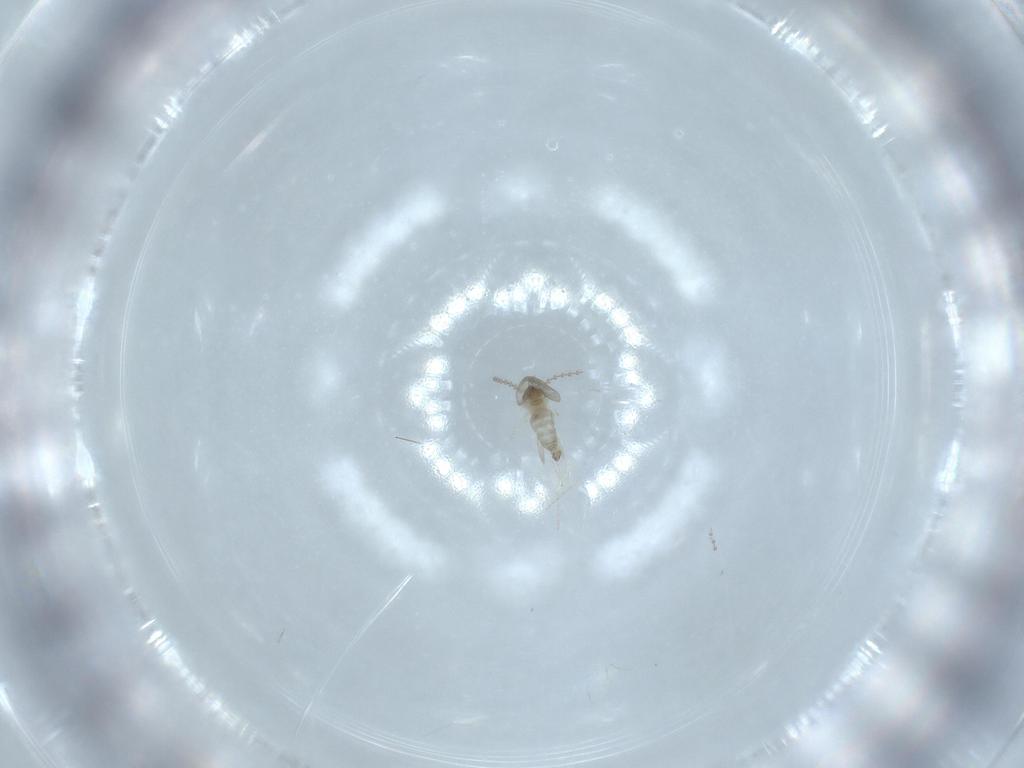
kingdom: Animalia
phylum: Arthropoda
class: Insecta
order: Diptera
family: Cecidomyiidae
